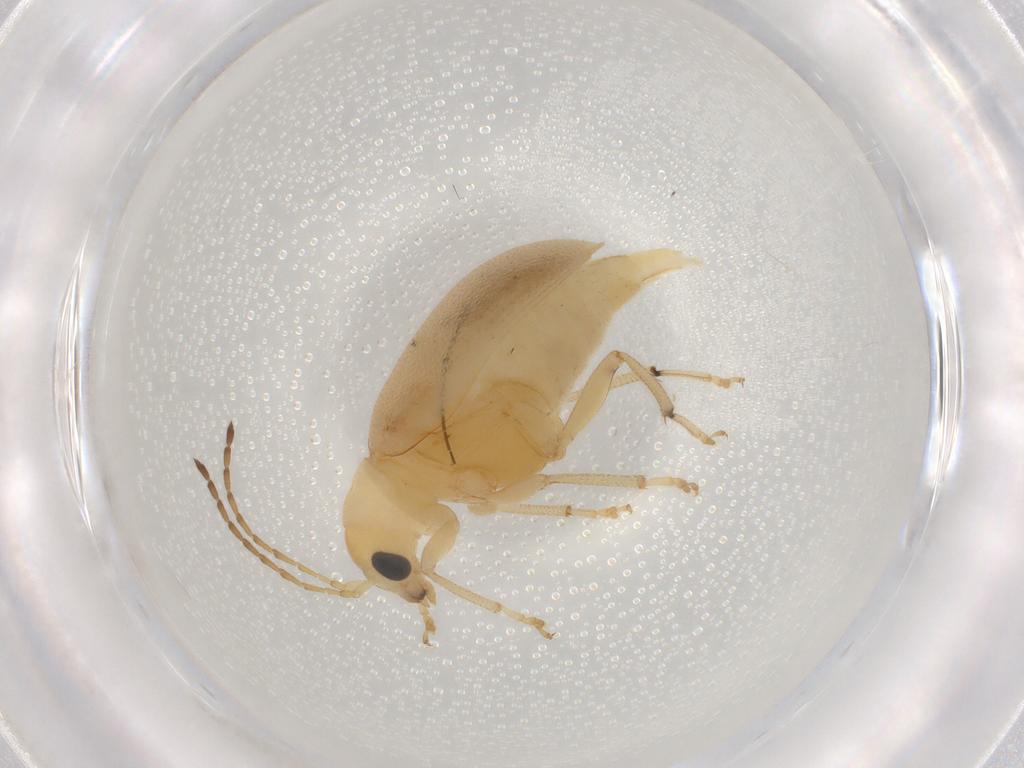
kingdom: Animalia
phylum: Arthropoda
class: Insecta
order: Coleoptera
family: Chrysomelidae
